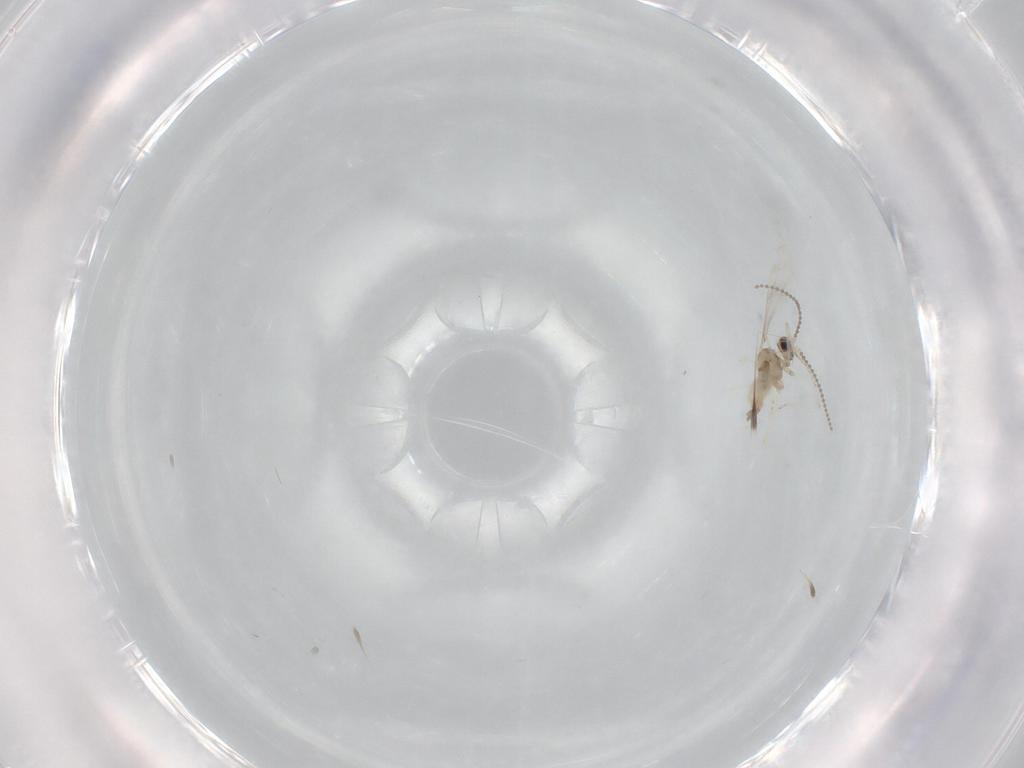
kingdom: Animalia
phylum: Arthropoda
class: Insecta
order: Diptera
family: Cecidomyiidae
